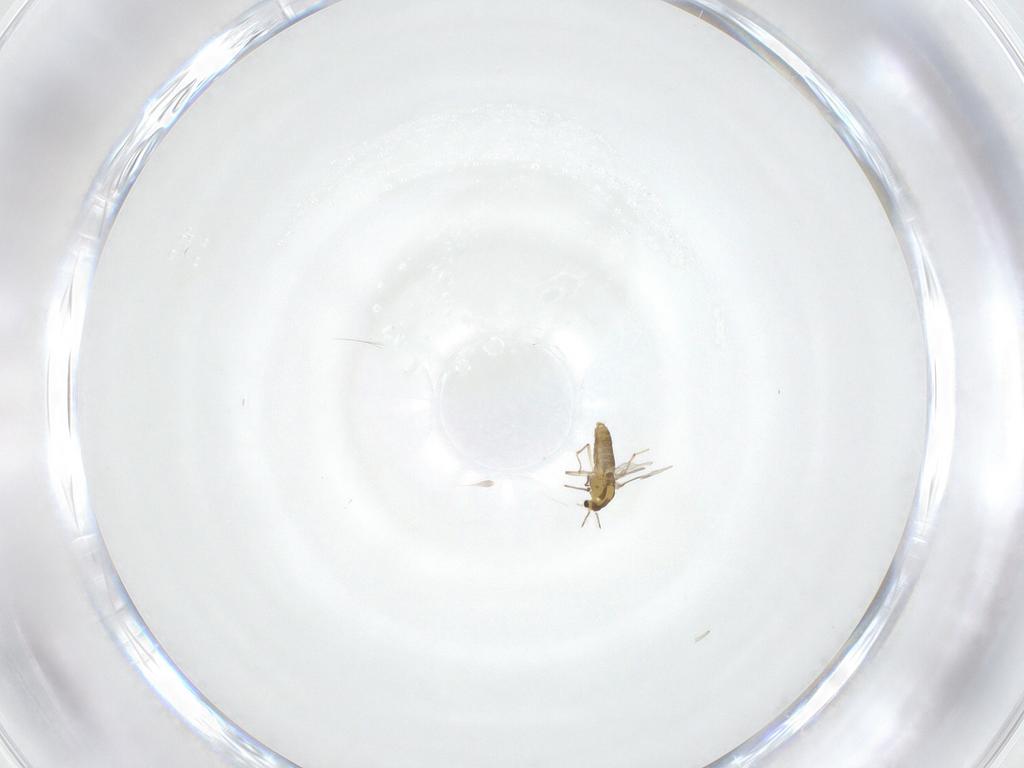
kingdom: Animalia
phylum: Arthropoda
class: Insecta
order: Diptera
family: Chironomidae
